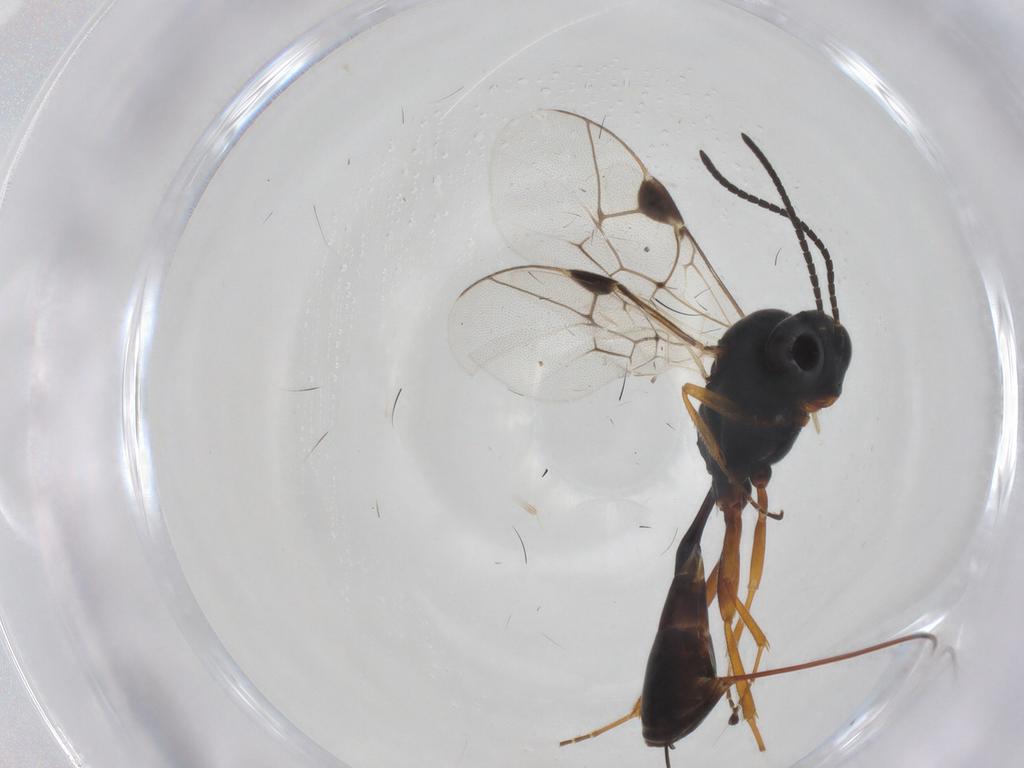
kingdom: Animalia
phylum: Arthropoda
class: Insecta
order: Hymenoptera
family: Ichneumonidae
